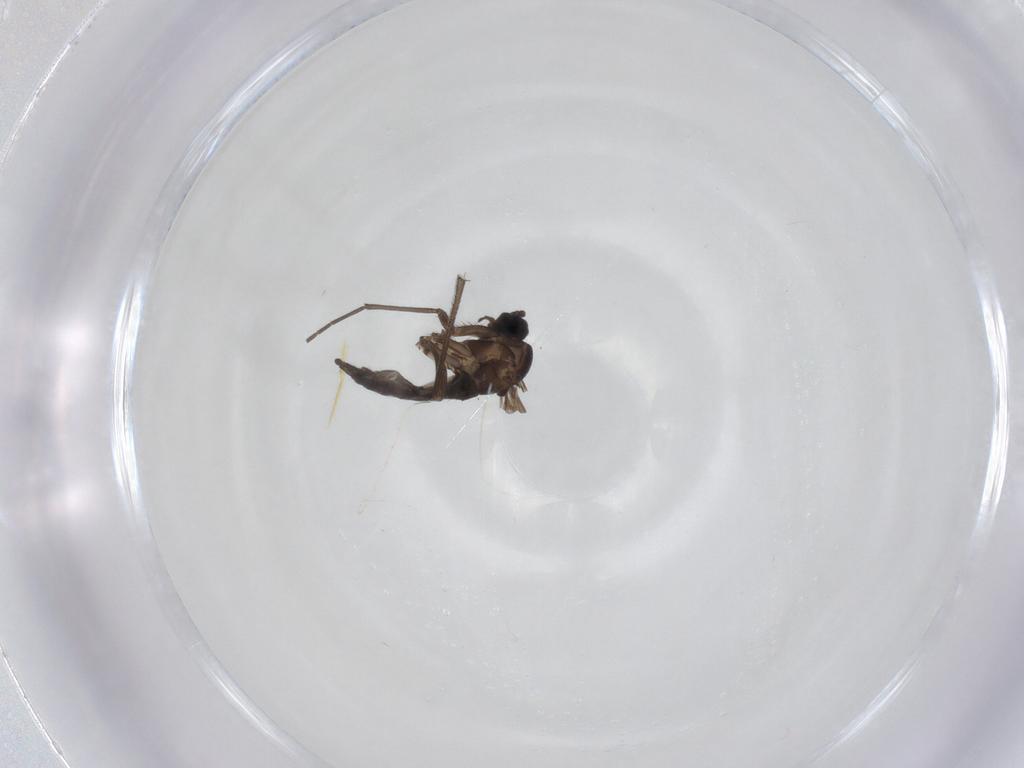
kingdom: Animalia
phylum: Arthropoda
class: Insecta
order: Diptera
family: Sciaridae
